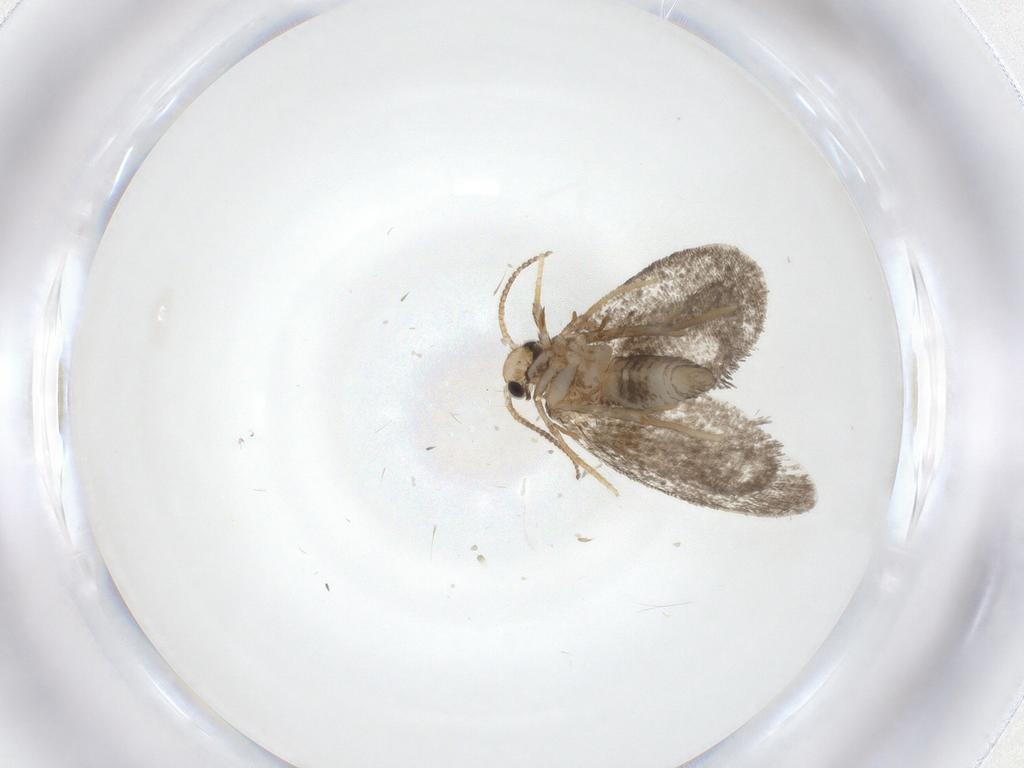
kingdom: Animalia
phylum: Arthropoda
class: Insecta
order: Lepidoptera
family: Psychidae
